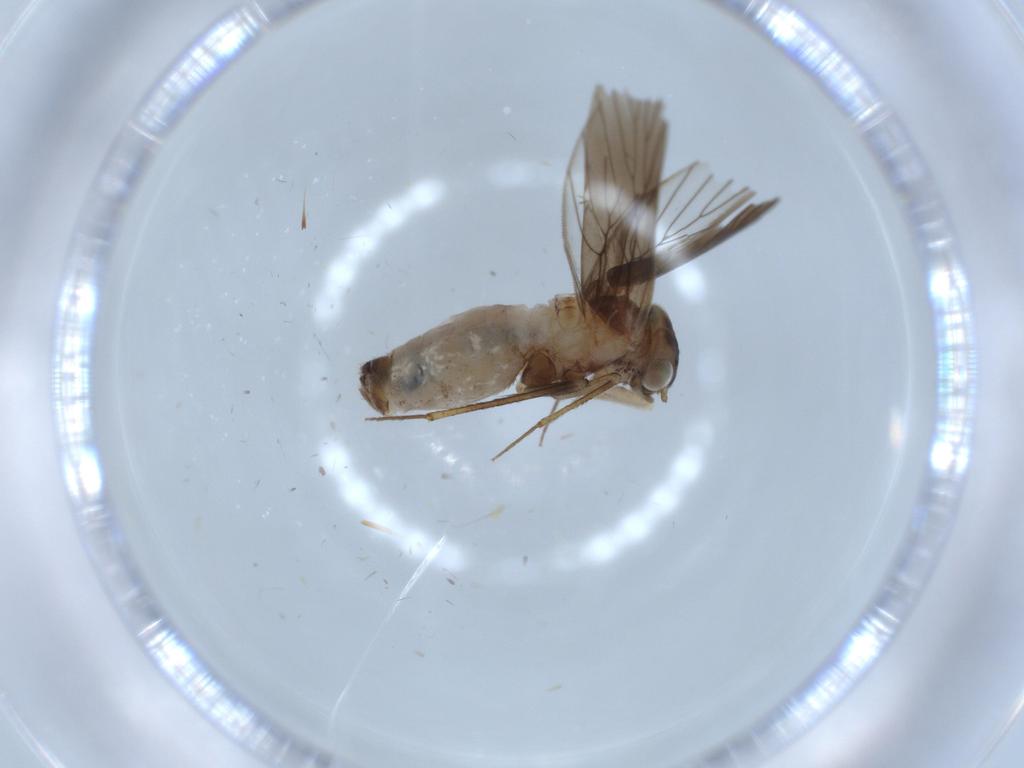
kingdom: Animalia
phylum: Arthropoda
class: Insecta
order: Psocodea
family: Lepidopsocidae
